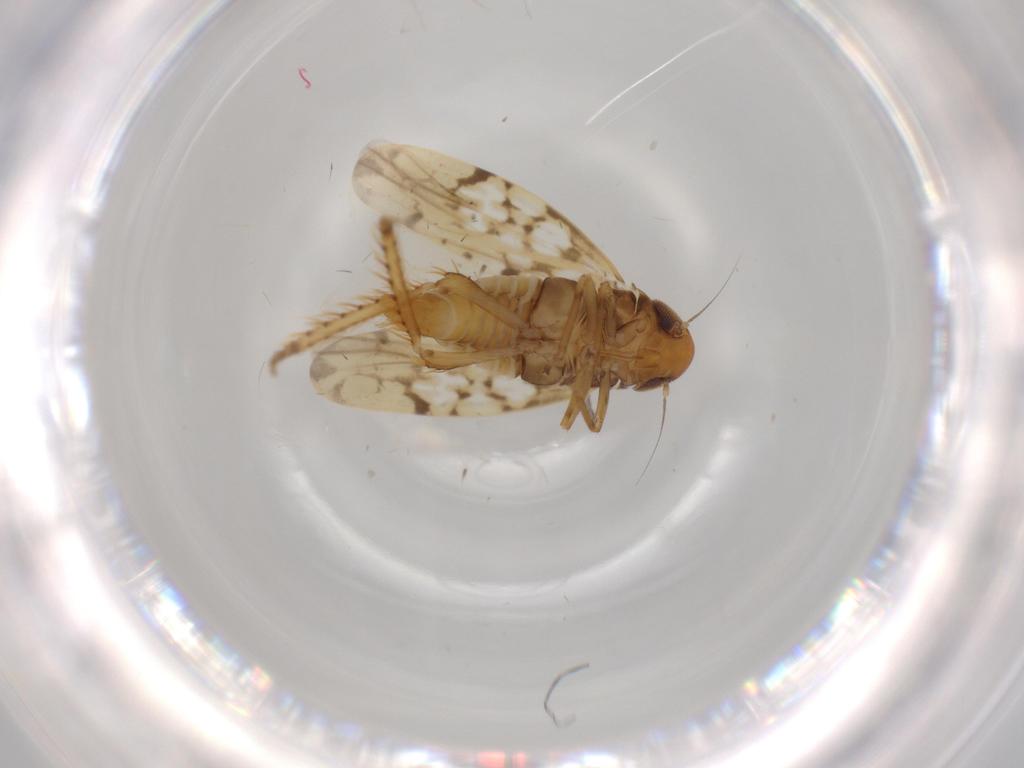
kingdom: Animalia
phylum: Arthropoda
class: Insecta
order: Hemiptera
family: Cicadellidae
